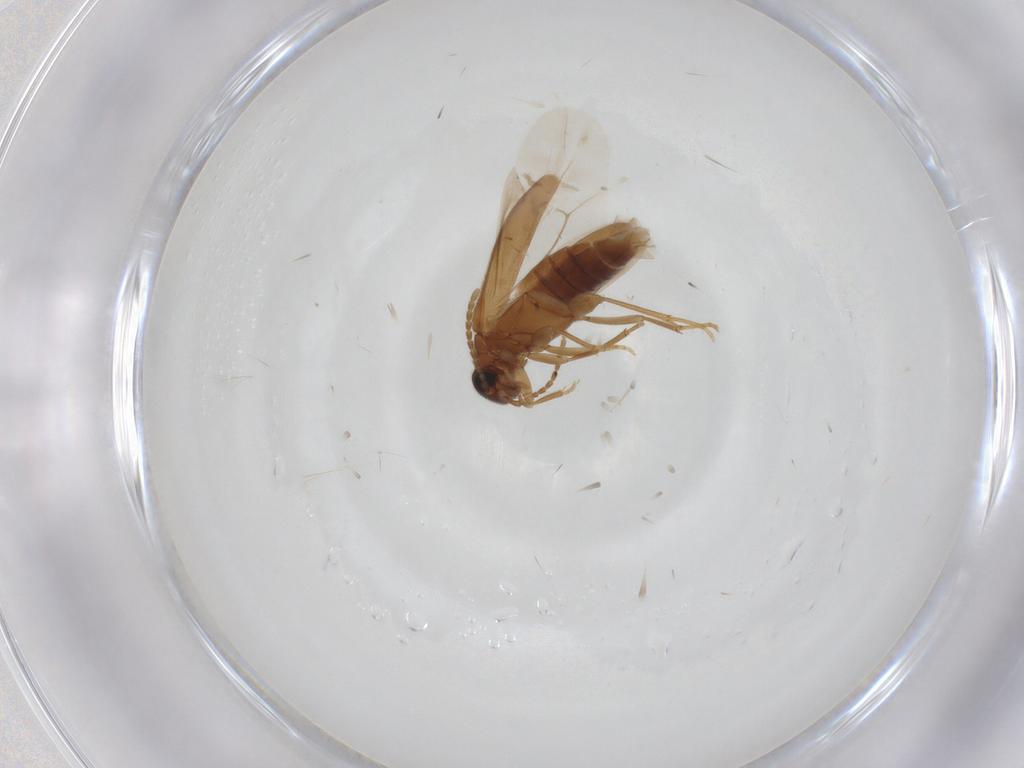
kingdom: Animalia
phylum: Arthropoda
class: Insecta
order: Coleoptera
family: Scraptiidae
